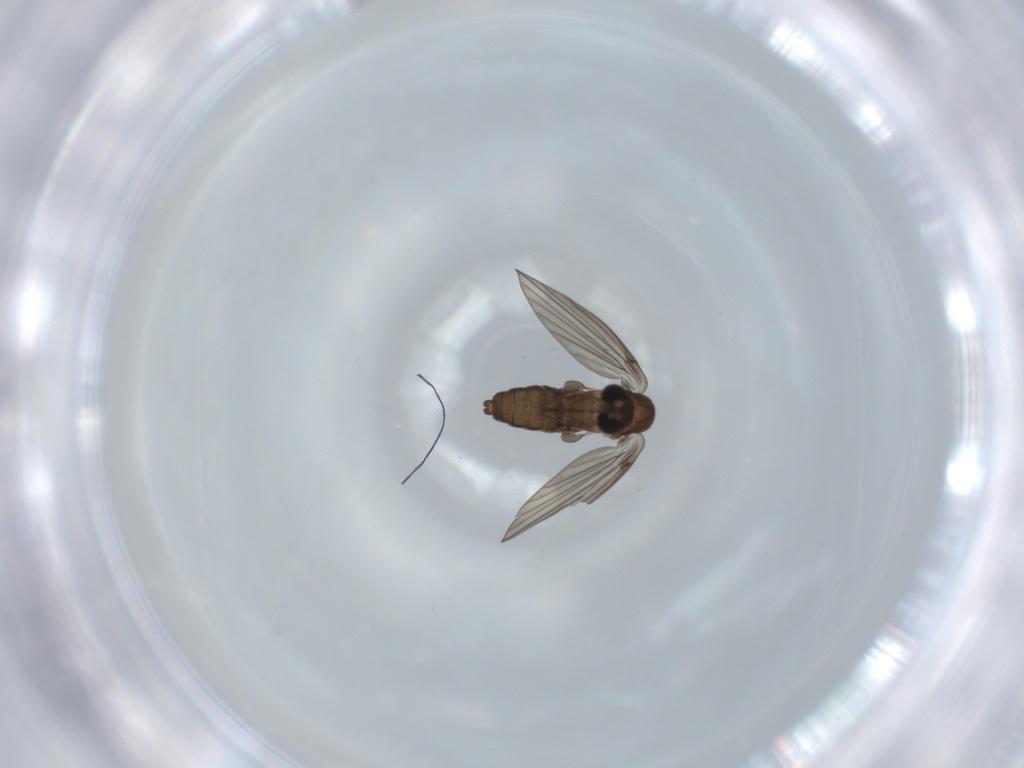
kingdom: Animalia
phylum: Arthropoda
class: Insecta
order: Diptera
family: Psychodidae
